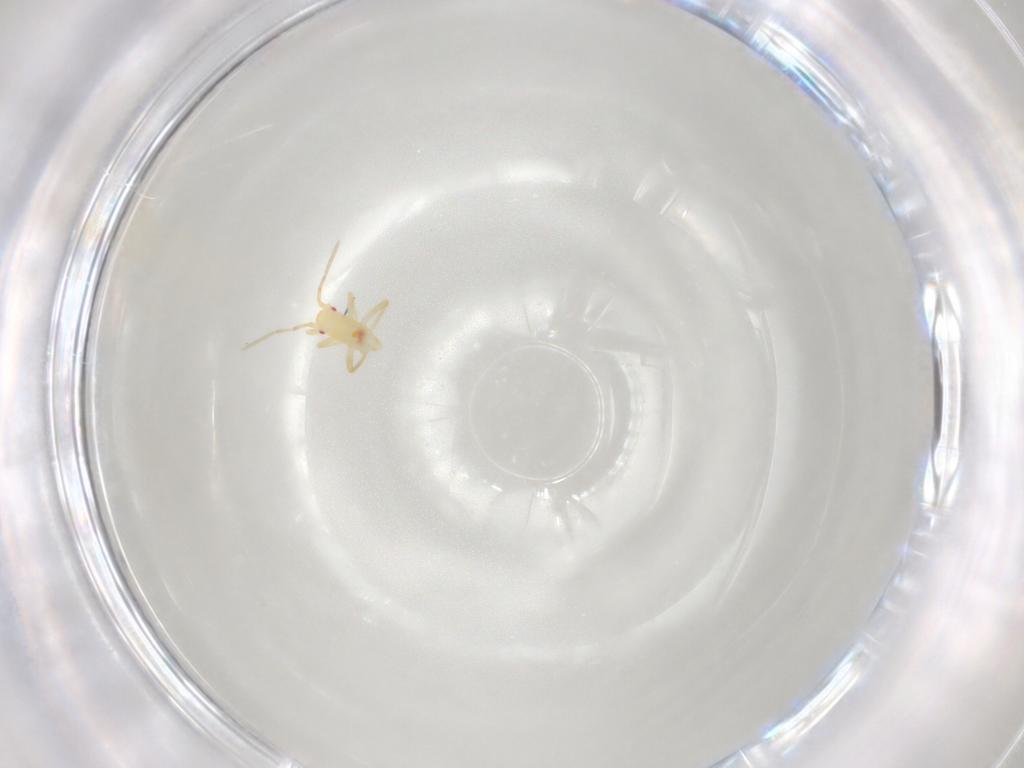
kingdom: Animalia
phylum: Arthropoda
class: Insecta
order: Hemiptera
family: Miridae
